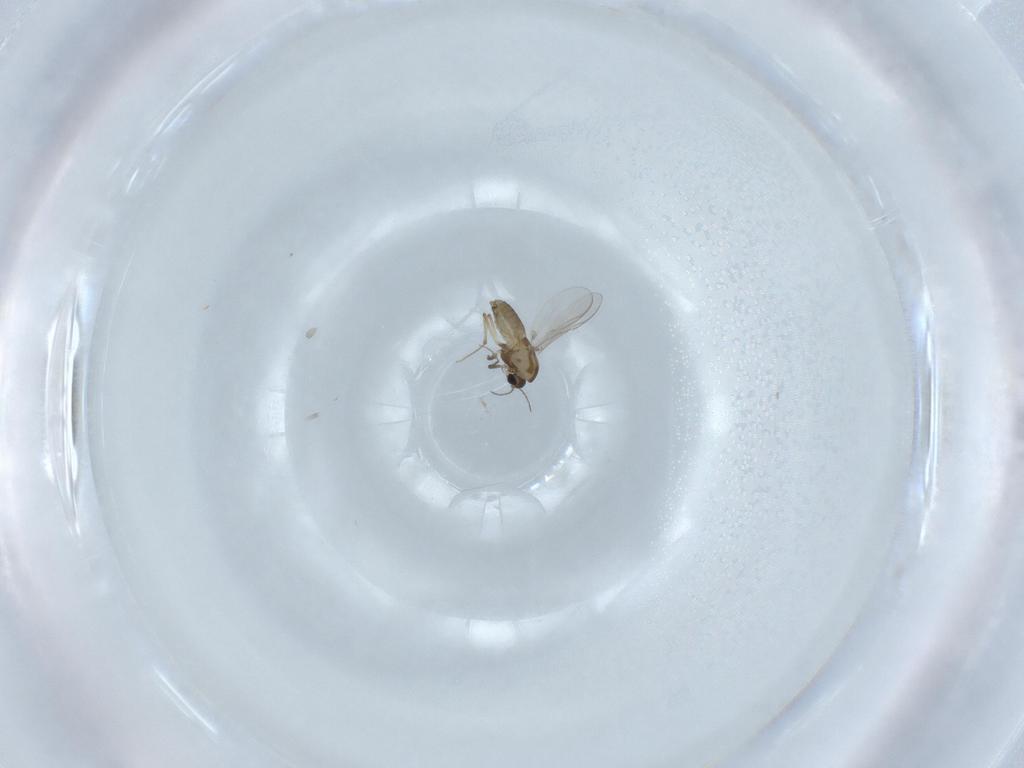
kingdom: Animalia
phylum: Arthropoda
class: Insecta
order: Diptera
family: Chironomidae
